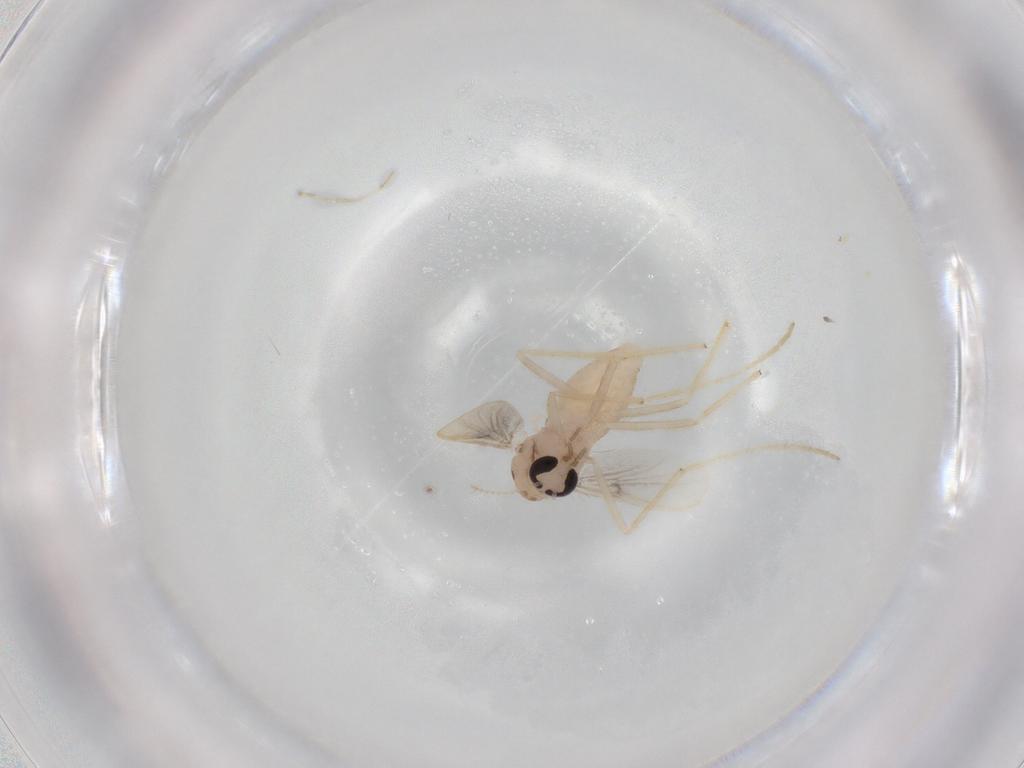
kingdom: Animalia
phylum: Arthropoda
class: Insecta
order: Diptera
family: Chironomidae
